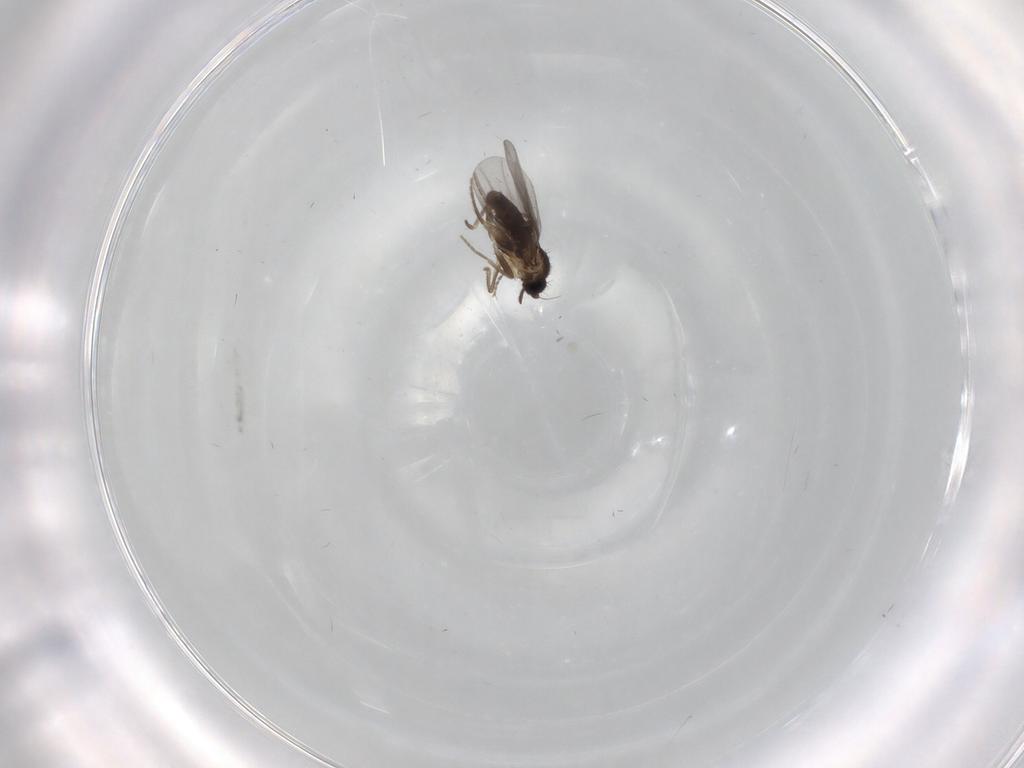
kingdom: Animalia
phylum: Arthropoda
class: Insecta
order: Diptera
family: Phoridae
